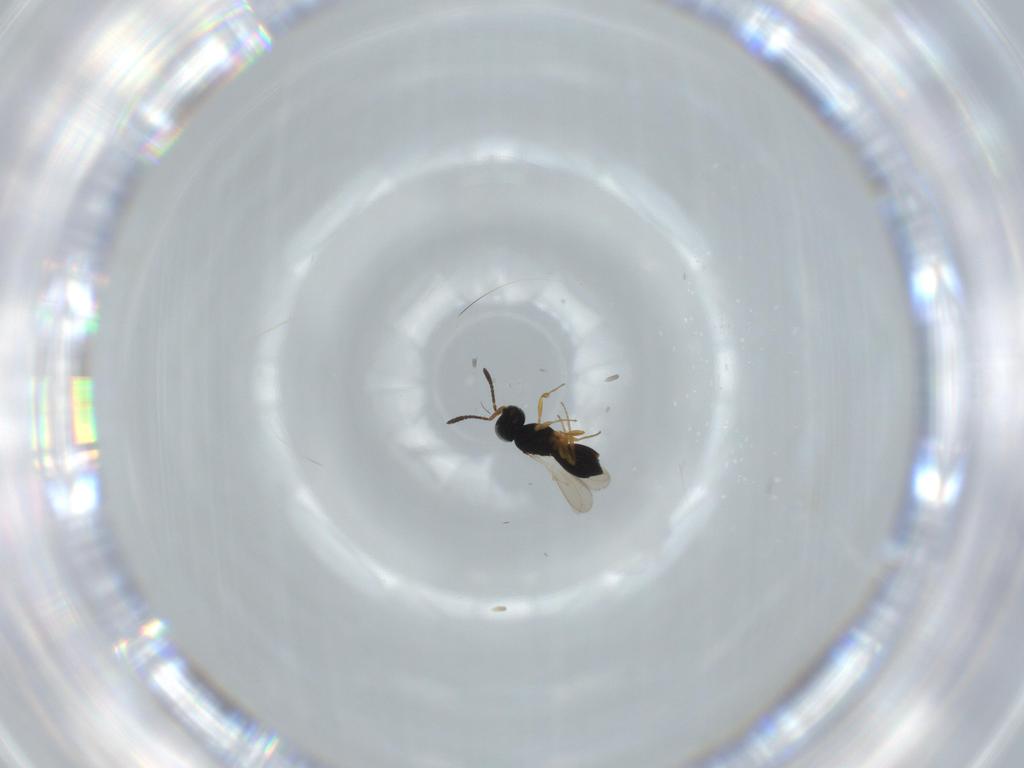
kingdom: Animalia
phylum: Arthropoda
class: Insecta
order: Hymenoptera
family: Scelionidae
